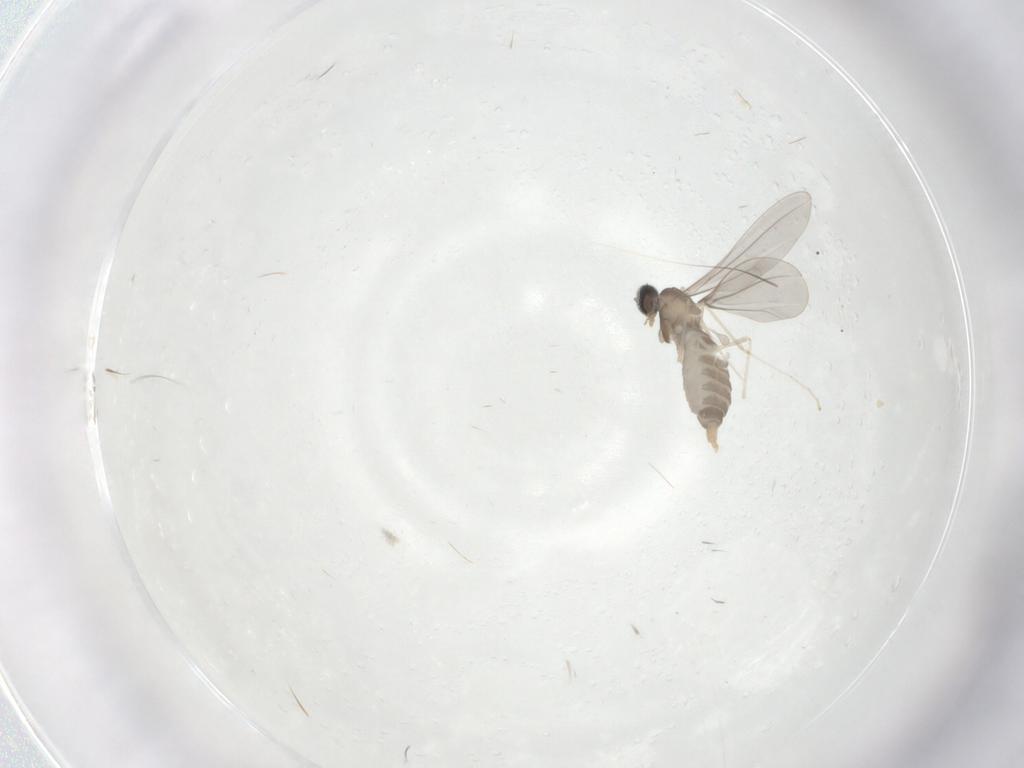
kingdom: Animalia
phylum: Arthropoda
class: Insecta
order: Diptera
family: Cecidomyiidae
